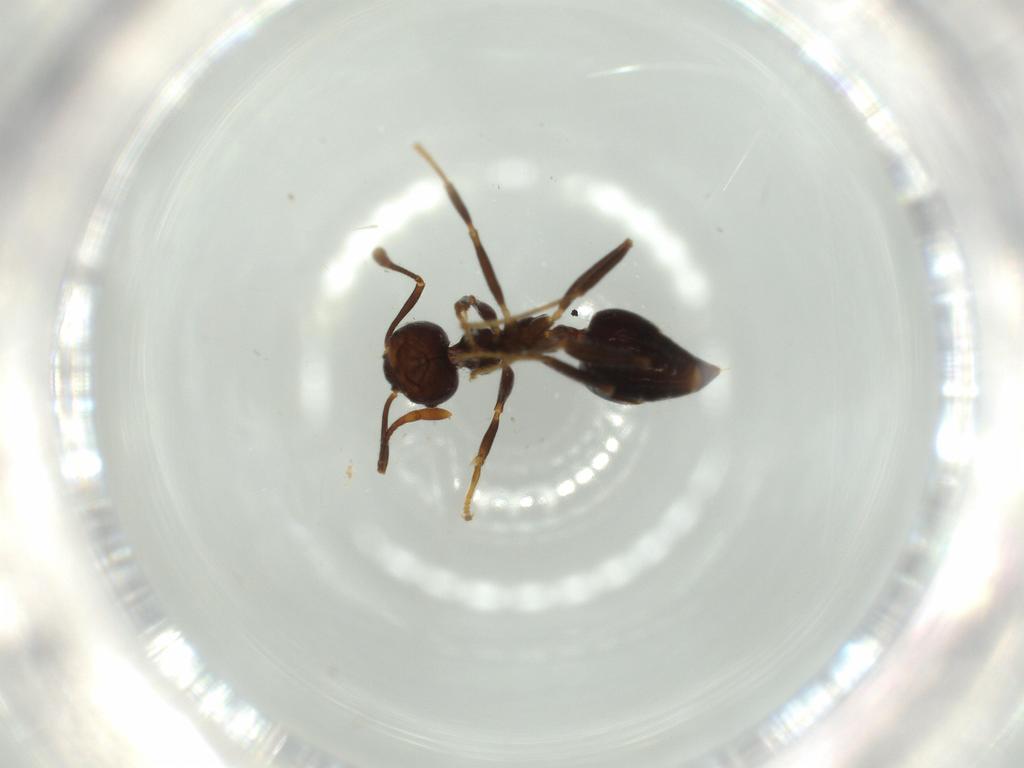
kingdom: Animalia
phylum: Arthropoda
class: Insecta
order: Hymenoptera
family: Formicidae
